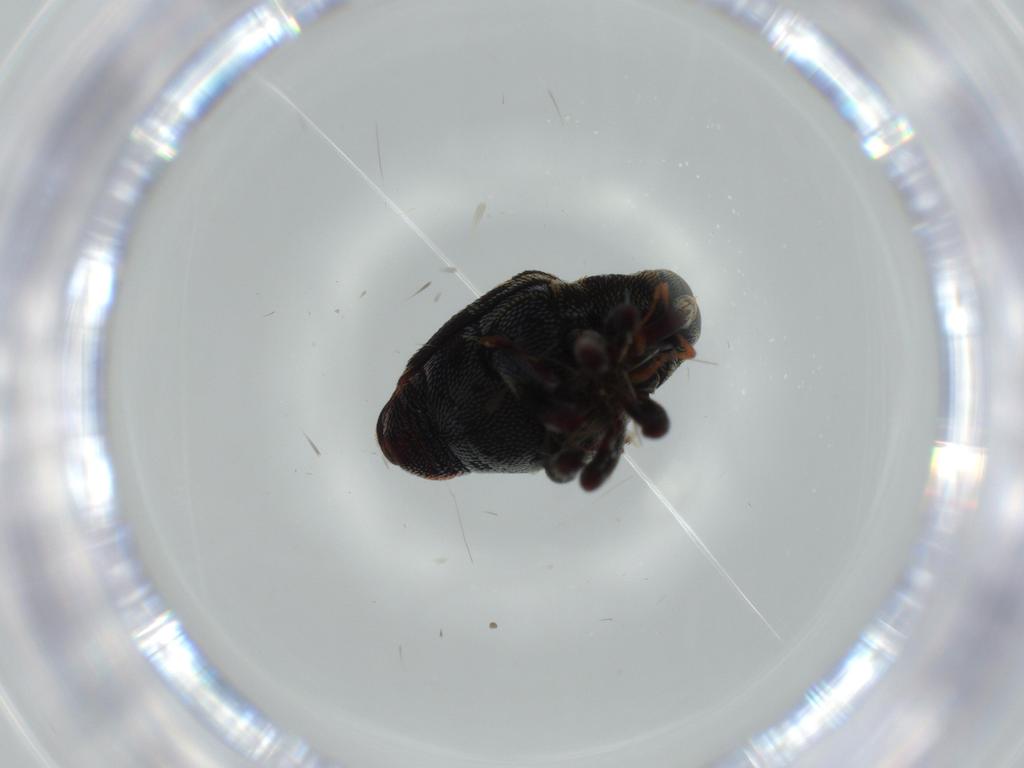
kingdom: Animalia
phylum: Arthropoda
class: Insecta
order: Coleoptera
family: Curculionidae
